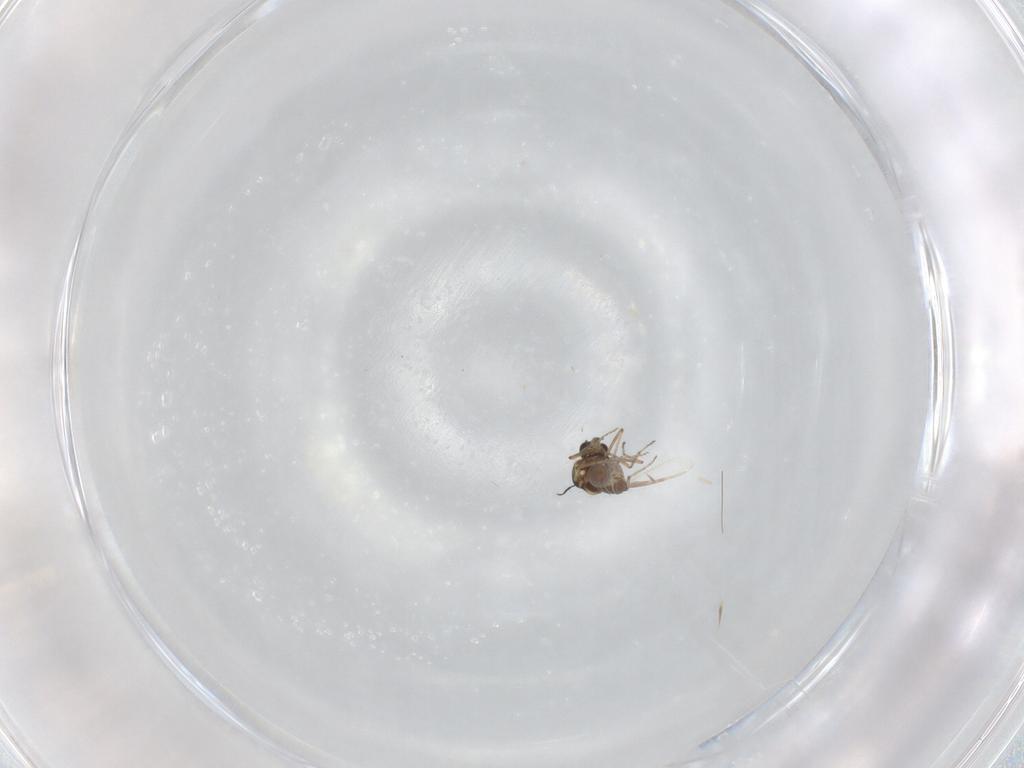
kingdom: Animalia
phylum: Arthropoda
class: Insecta
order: Diptera
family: Ceratopogonidae
